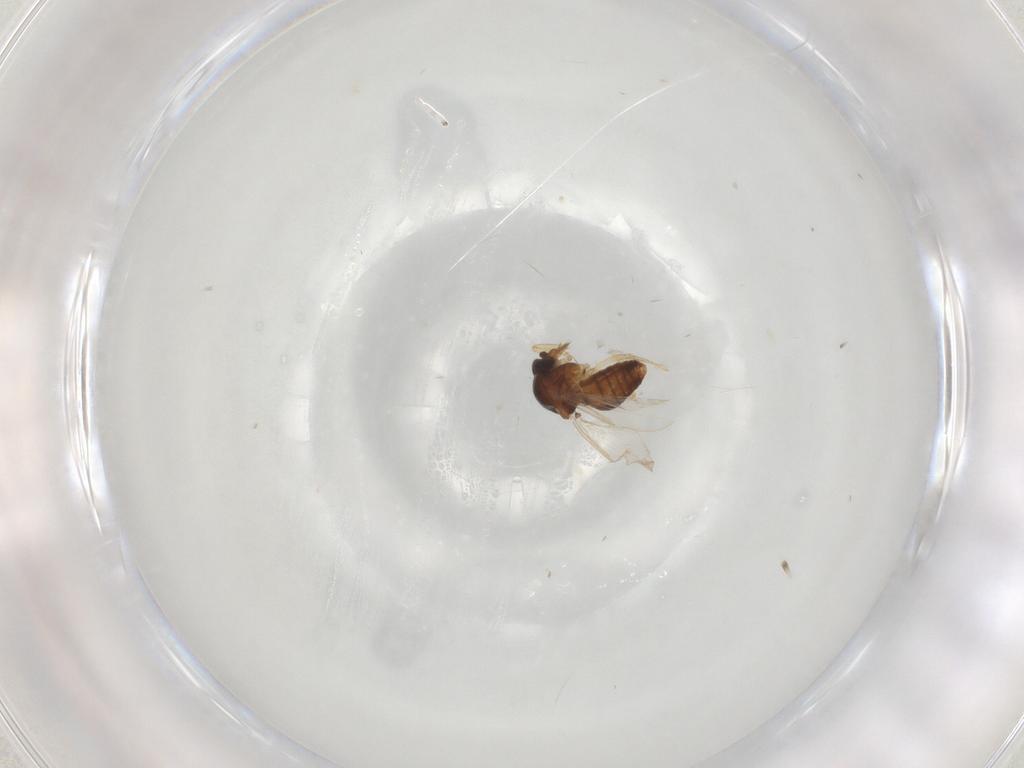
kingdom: Animalia
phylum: Arthropoda
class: Insecta
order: Diptera
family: Ceratopogonidae
